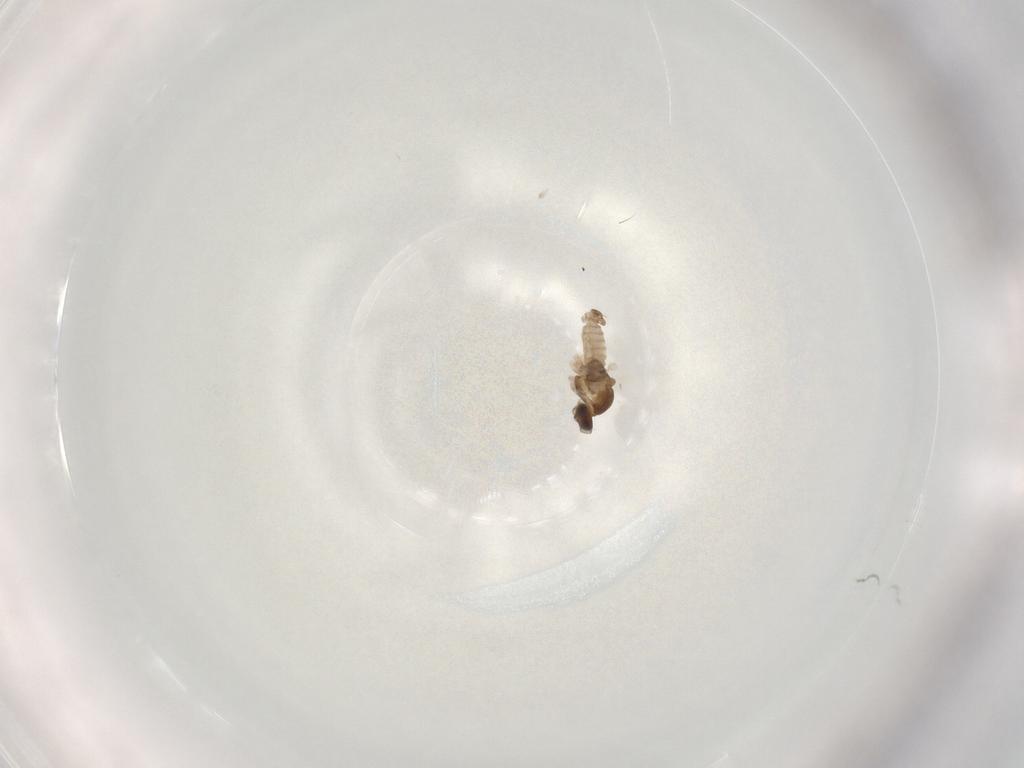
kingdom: Animalia
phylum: Arthropoda
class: Insecta
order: Diptera
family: Cecidomyiidae
